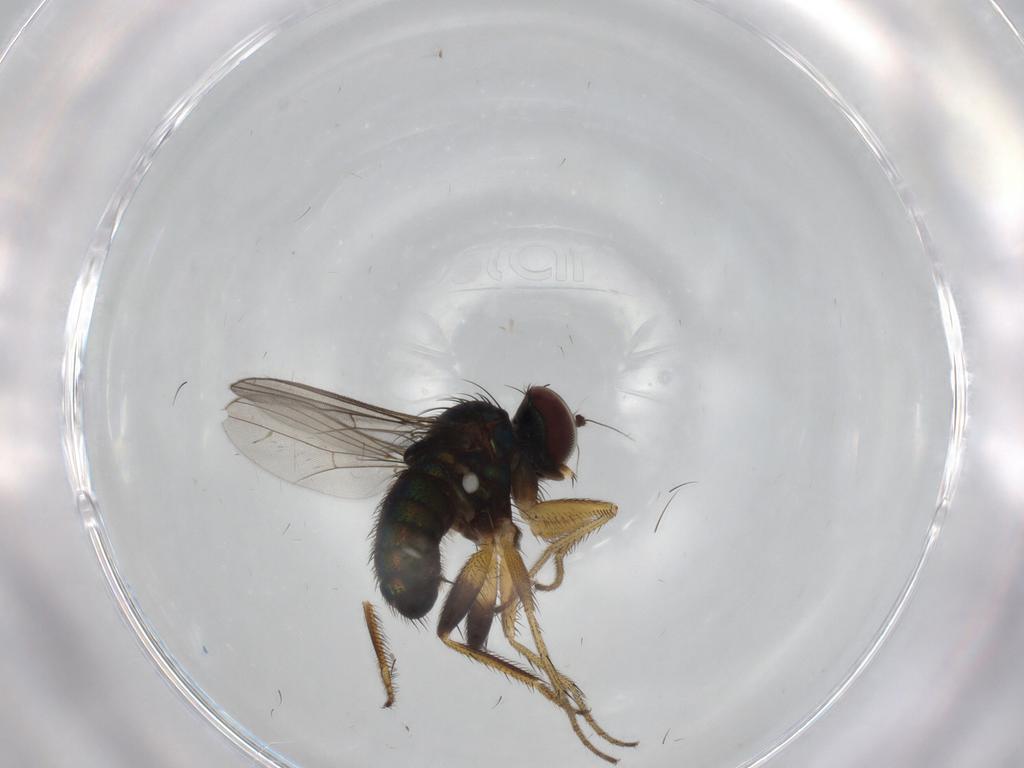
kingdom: Animalia
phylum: Arthropoda
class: Insecta
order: Diptera
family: Dolichopodidae
